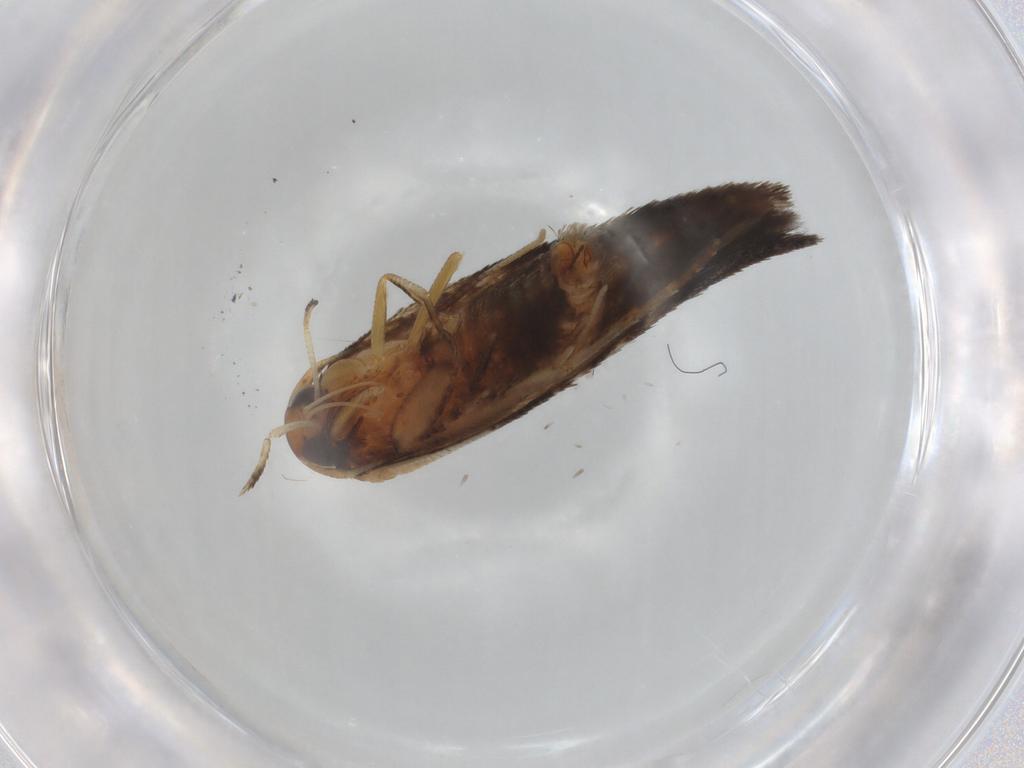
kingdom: Animalia
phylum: Arthropoda
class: Insecta
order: Lepidoptera
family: Cosmopterigidae
